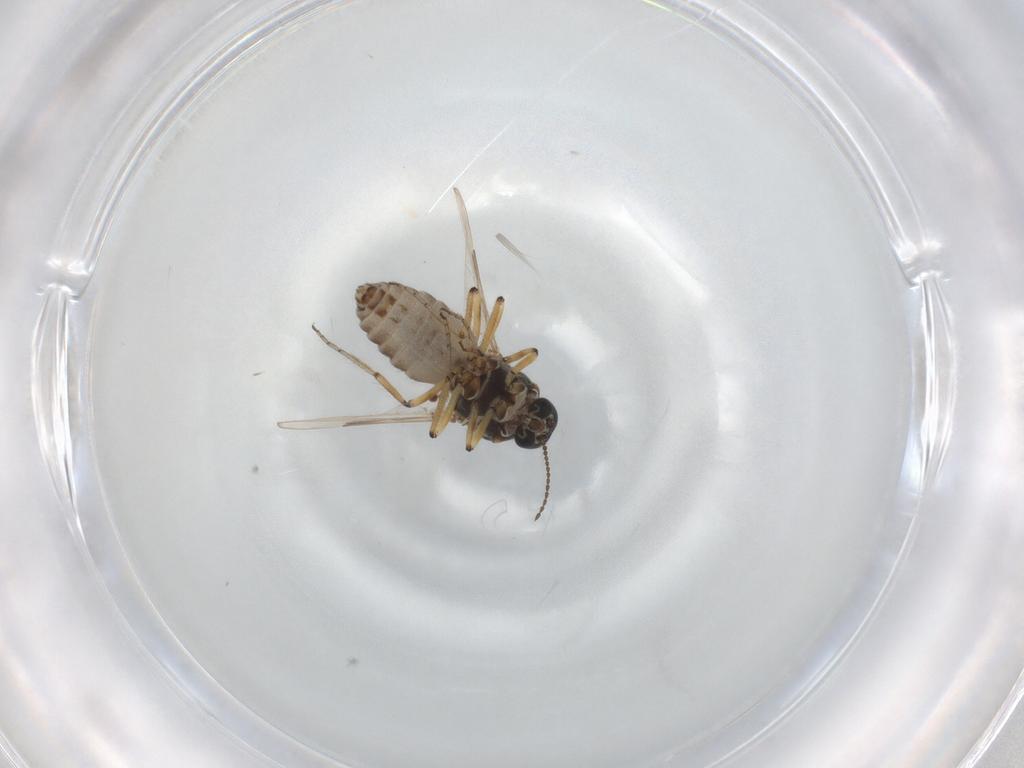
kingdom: Animalia
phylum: Arthropoda
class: Insecta
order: Diptera
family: Ceratopogonidae
